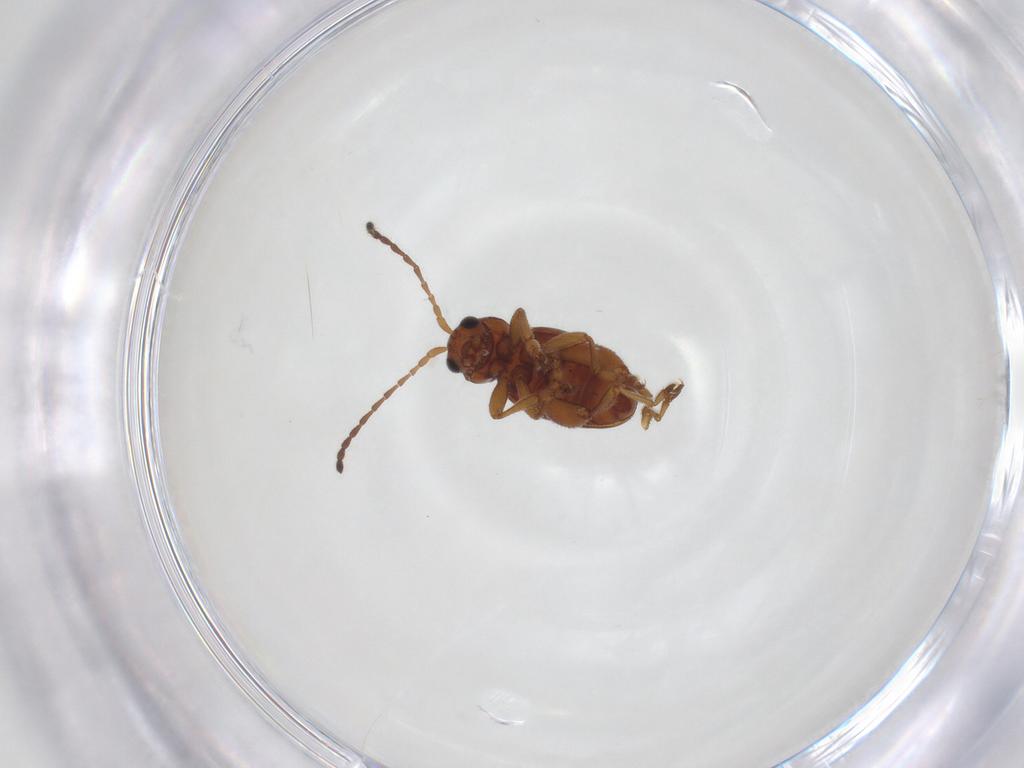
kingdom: Animalia
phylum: Arthropoda
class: Insecta
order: Coleoptera
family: Chrysomelidae
